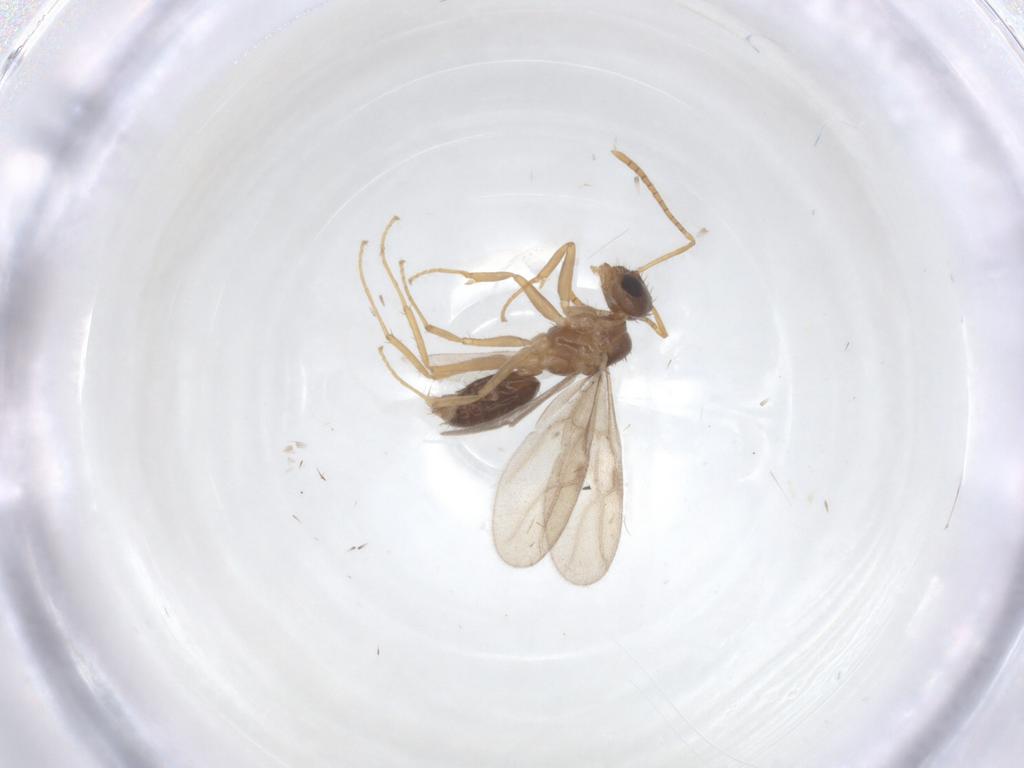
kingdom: Animalia
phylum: Arthropoda
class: Insecta
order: Hymenoptera
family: Formicidae
